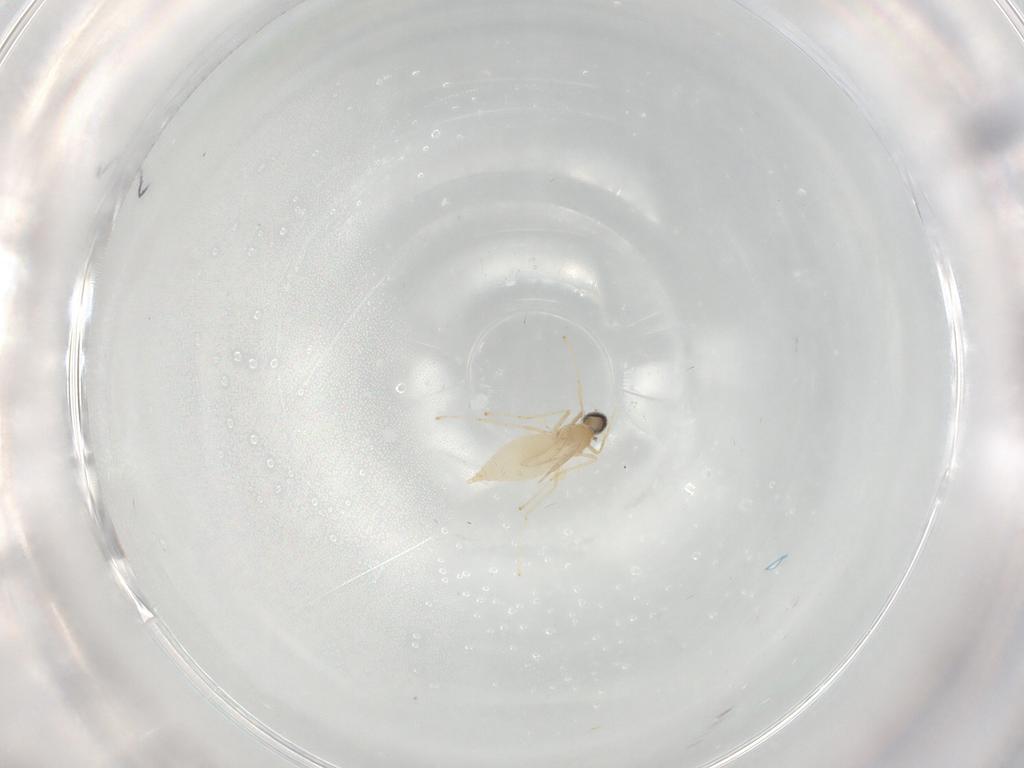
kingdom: Animalia
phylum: Arthropoda
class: Insecta
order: Diptera
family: Cecidomyiidae
